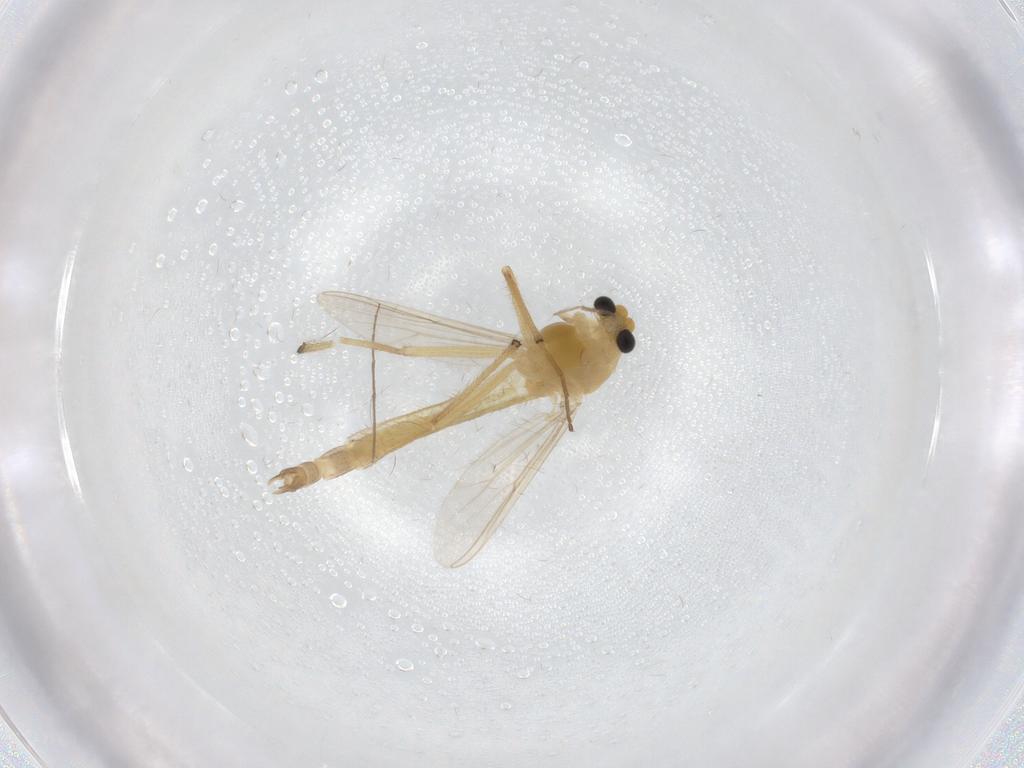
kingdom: Animalia
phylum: Arthropoda
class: Insecta
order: Diptera
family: Chironomidae
